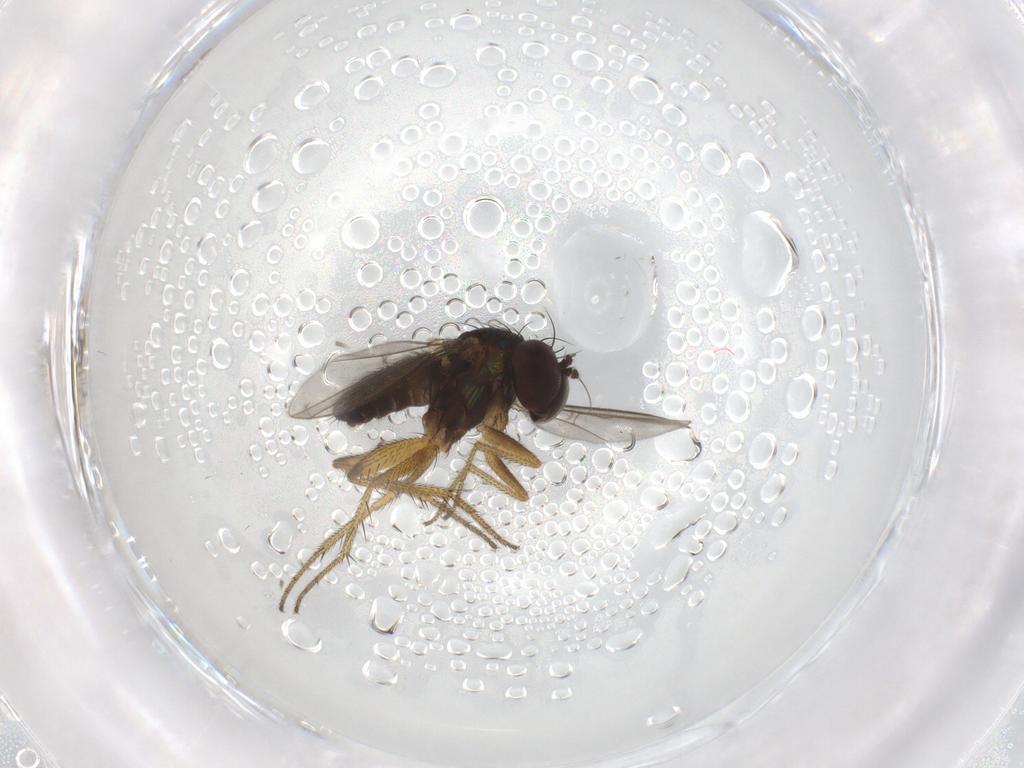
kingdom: Animalia
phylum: Arthropoda
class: Insecta
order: Diptera
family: Dolichopodidae
